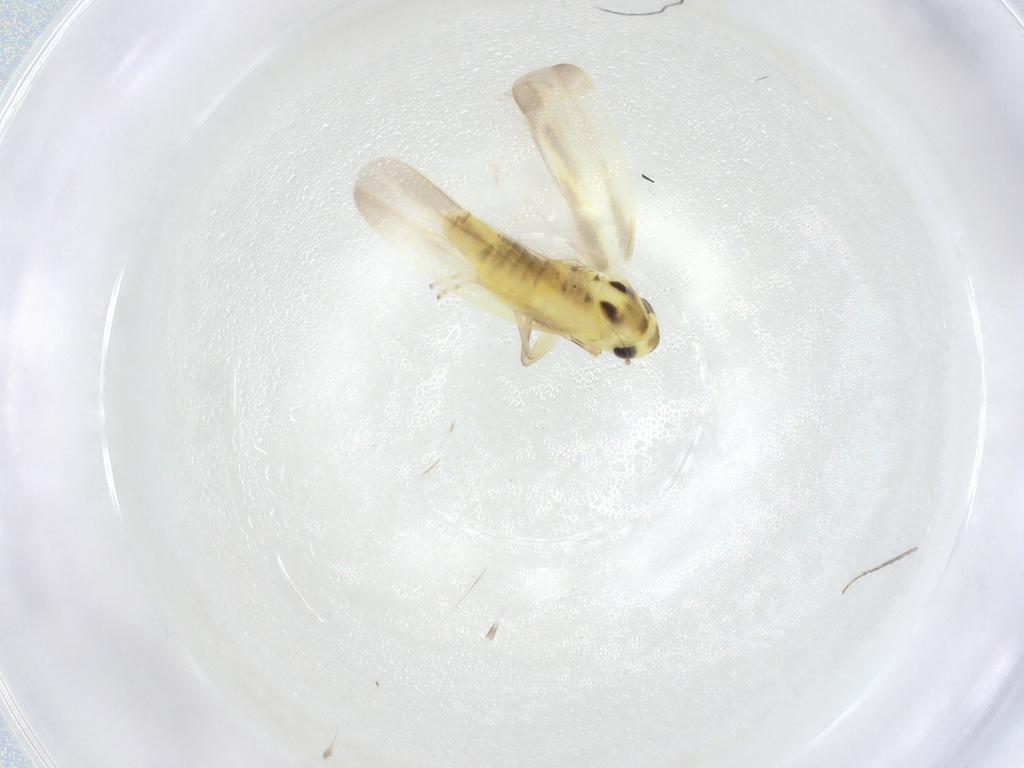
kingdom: Animalia
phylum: Arthropoda
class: Insecta
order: Hemiptera
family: Cicadellidae
